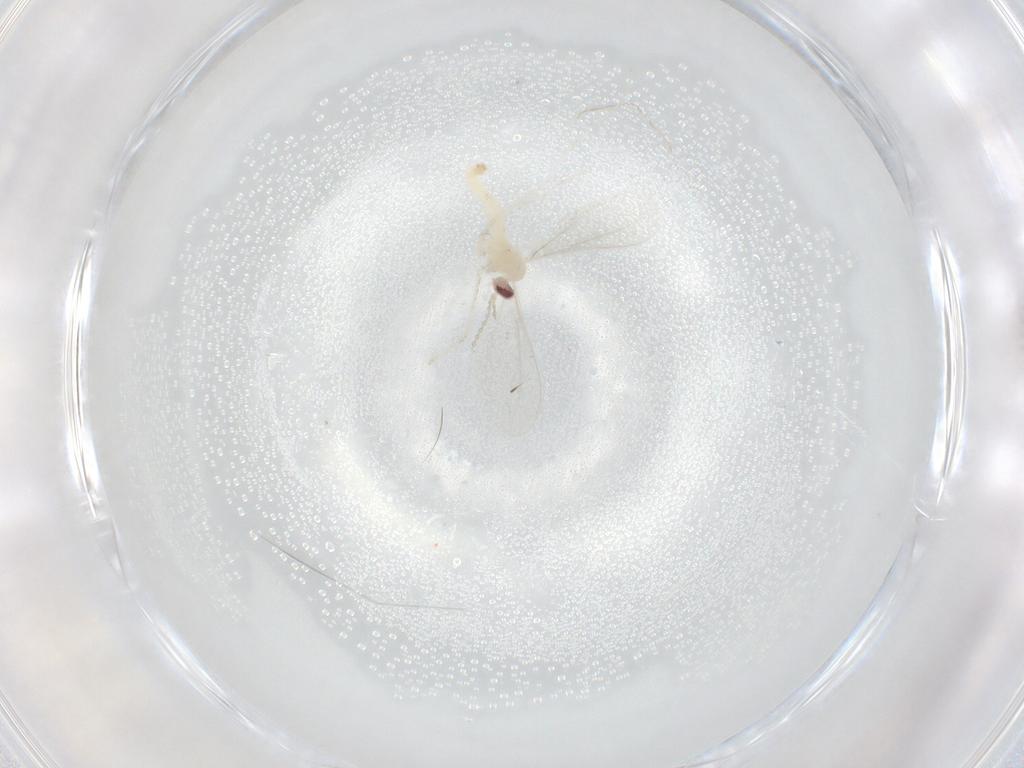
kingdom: Animalia
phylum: Arthropoda
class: Insecta
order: Diptera
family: Cecidomyiidae
